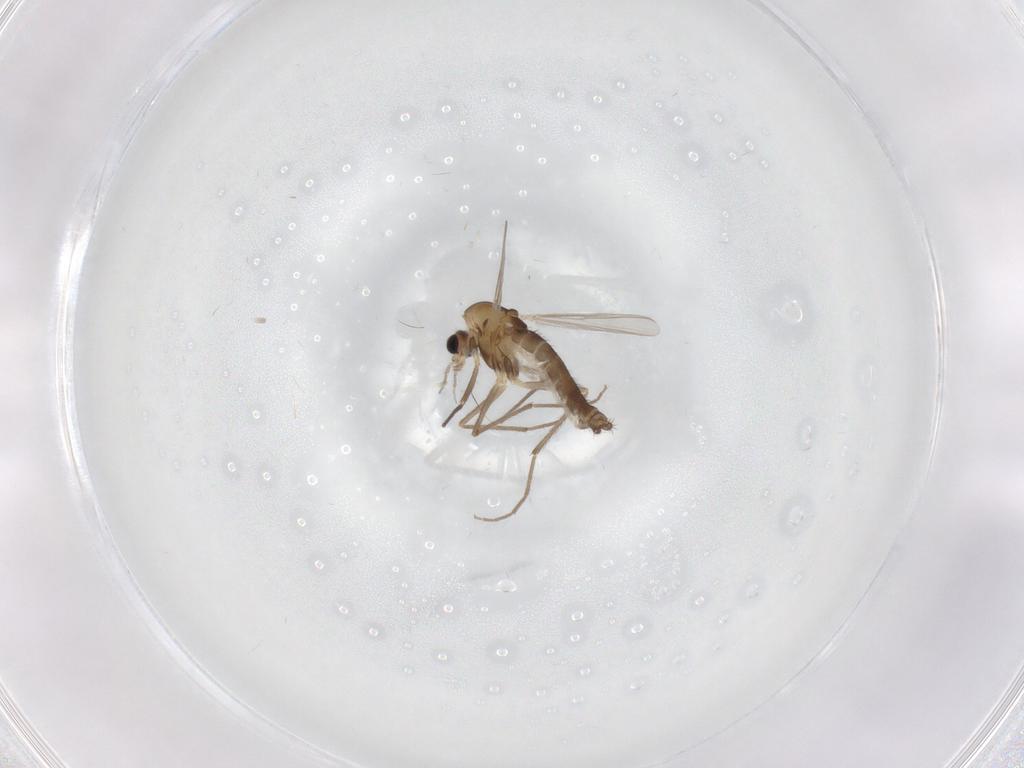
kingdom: Animalia
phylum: Arthropoda
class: Insecta
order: Diptera
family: Chironomidae
